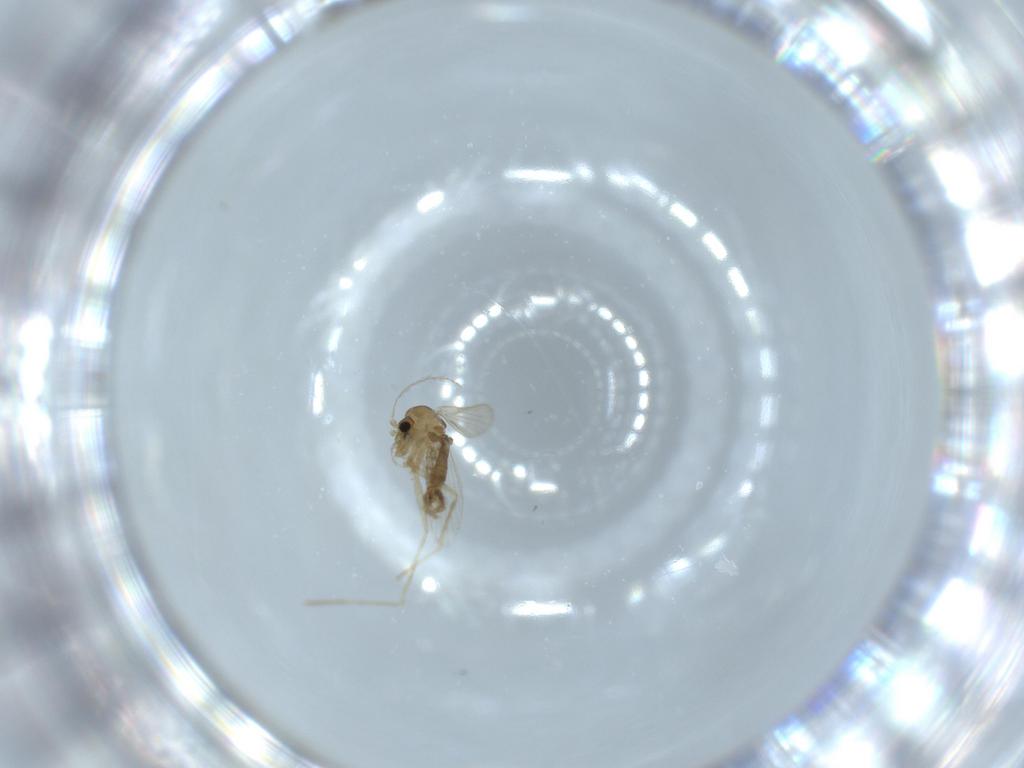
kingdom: Animalia
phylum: Arthropoda
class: Insecta
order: Diptera
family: Psychodidae
